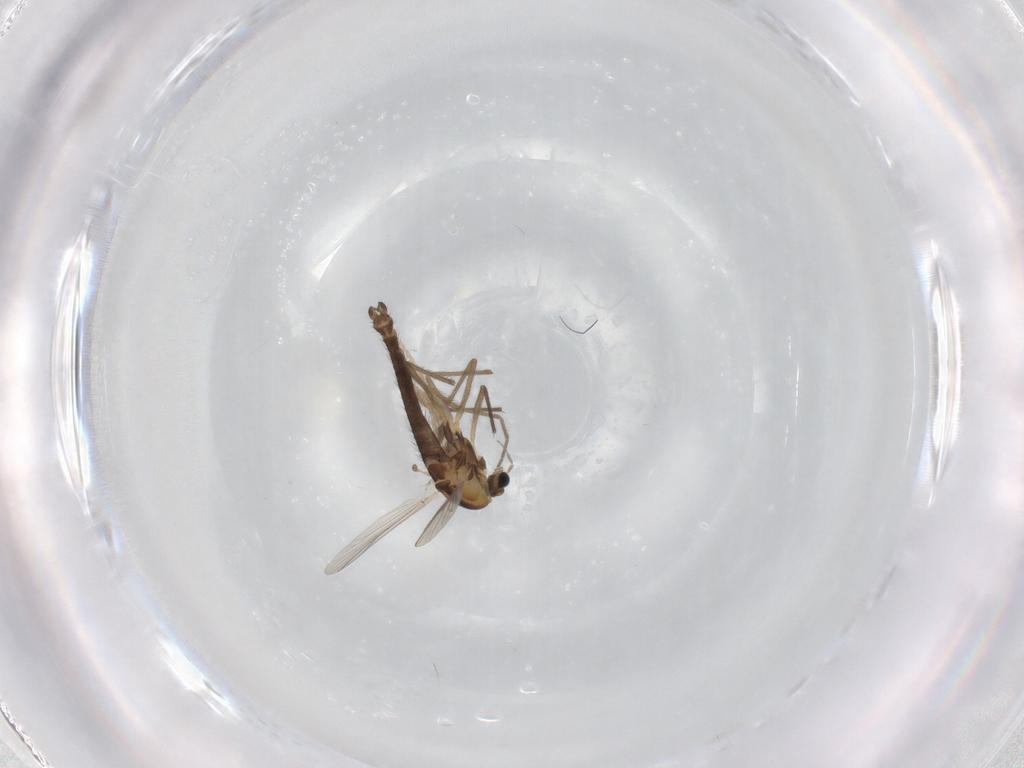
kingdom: Animalia
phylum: Arthropoda
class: Insecta
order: Diptera
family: Chironomidae
